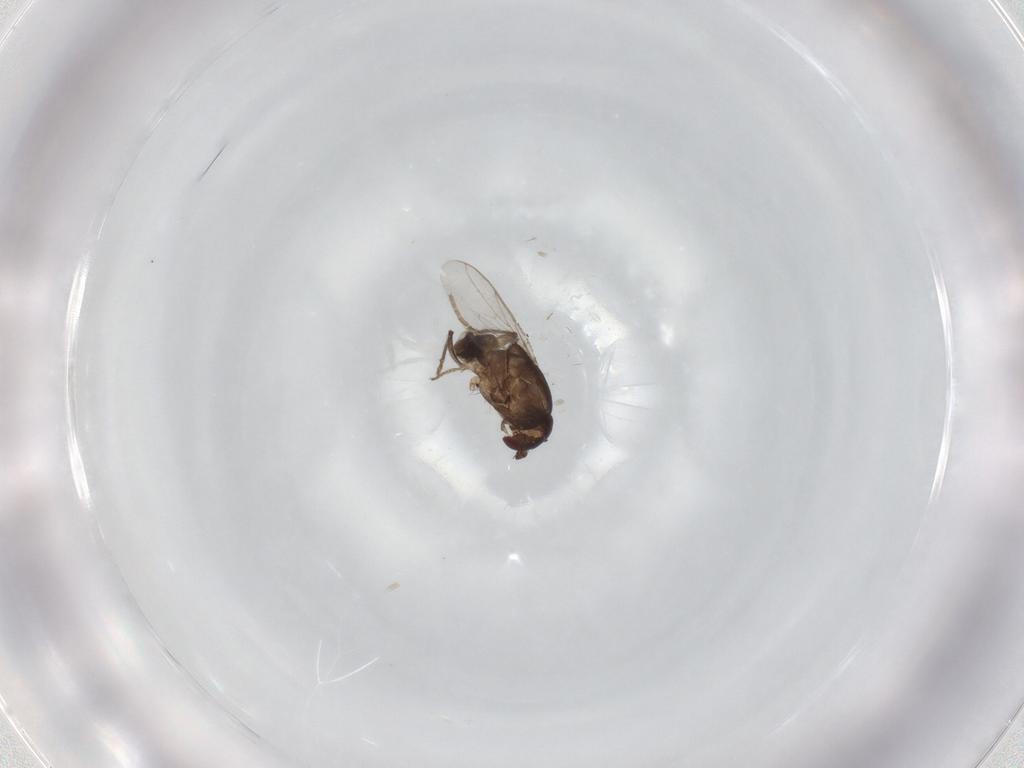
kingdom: Animalia
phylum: Arthropoda
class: Insecta
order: Diptera
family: Sphaeroceridae
